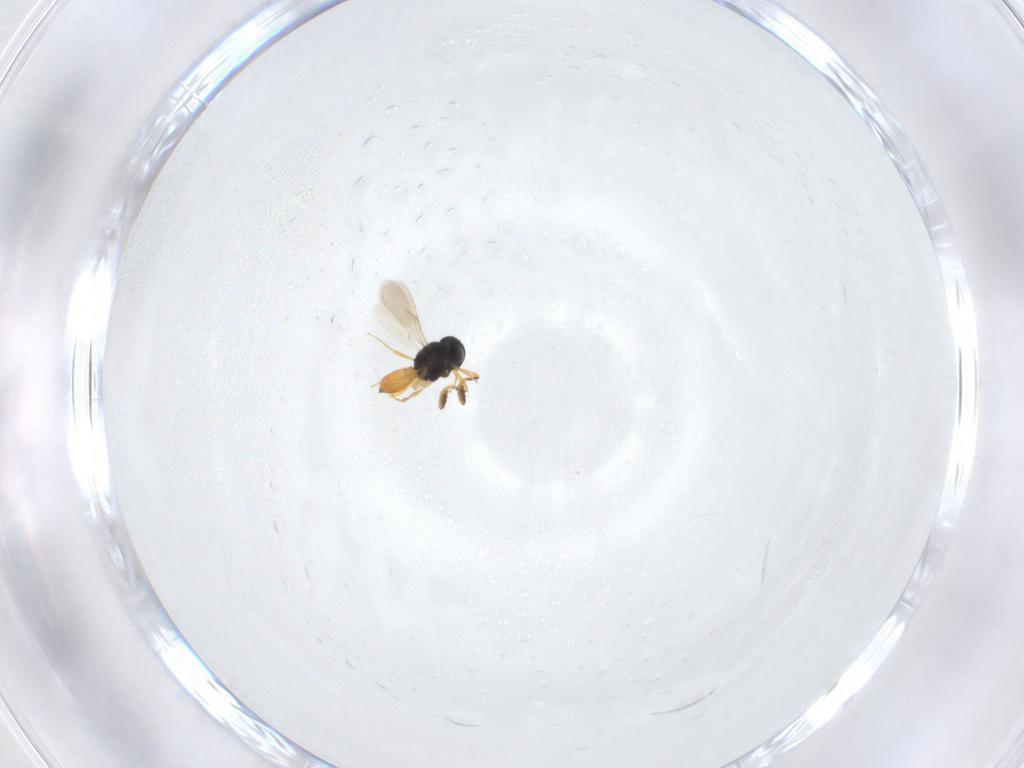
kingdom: Animalia
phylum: Arthropoda
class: Insecta
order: Hymenoptera
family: Scelionidae
